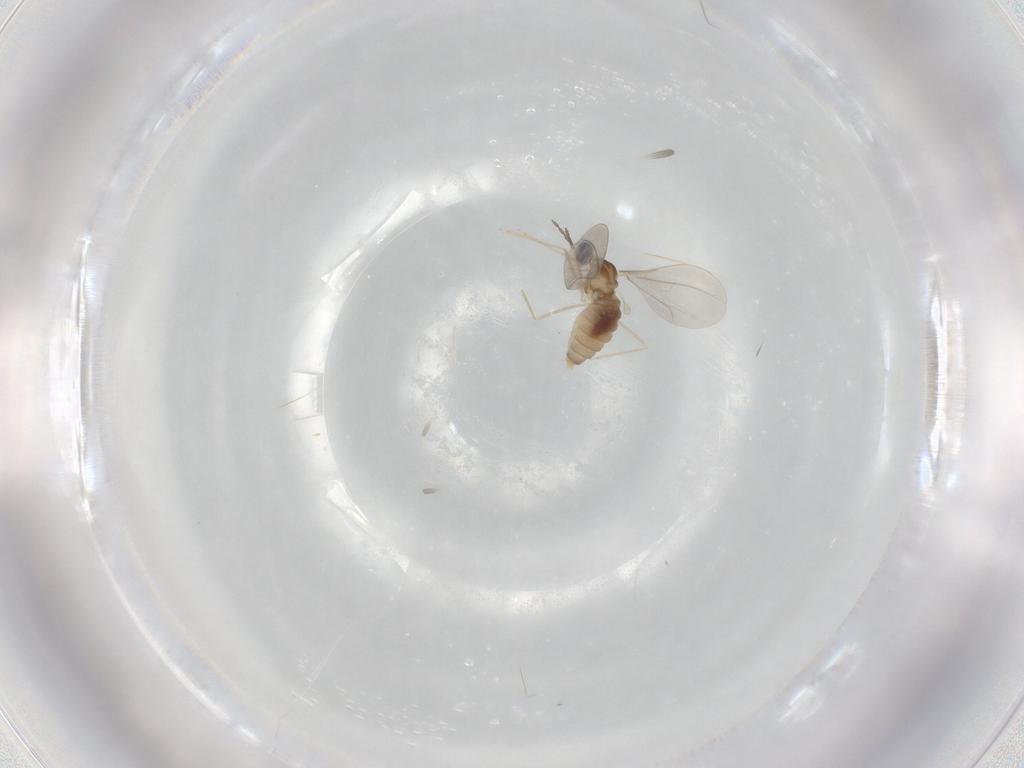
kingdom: Animalia
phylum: Arthropoda
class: Insecta
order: Diptera
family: Cecidomyiidae
